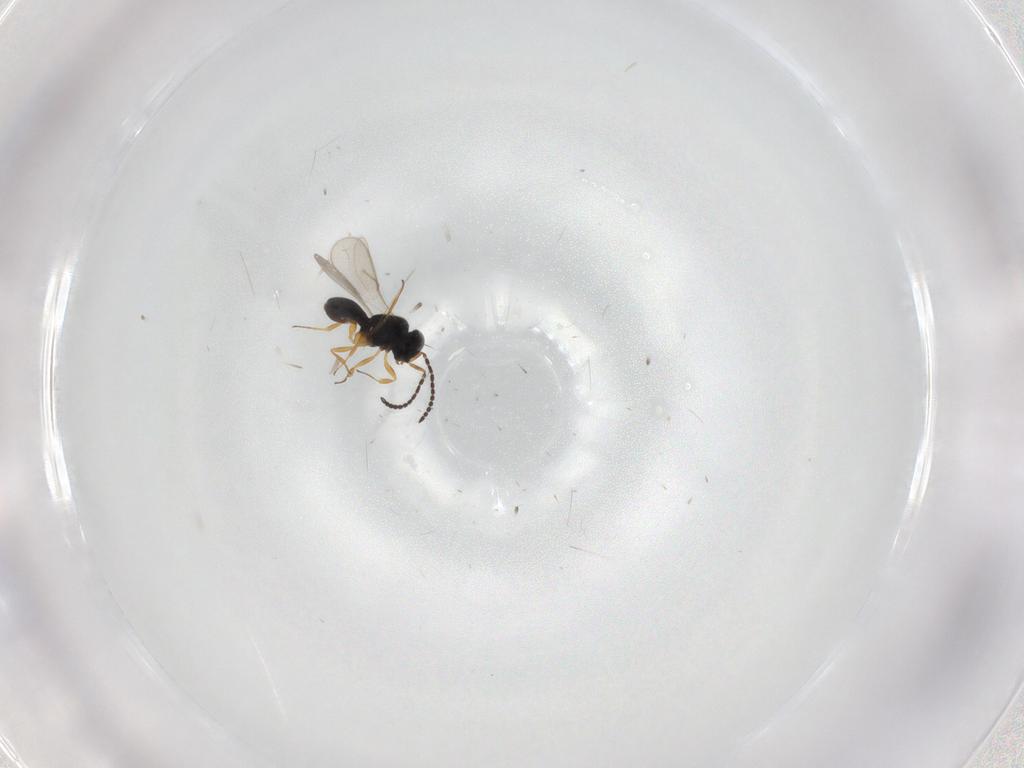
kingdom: Animalia
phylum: Arthropoda
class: Insecta
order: Hymenoptera
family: Scelionidae
